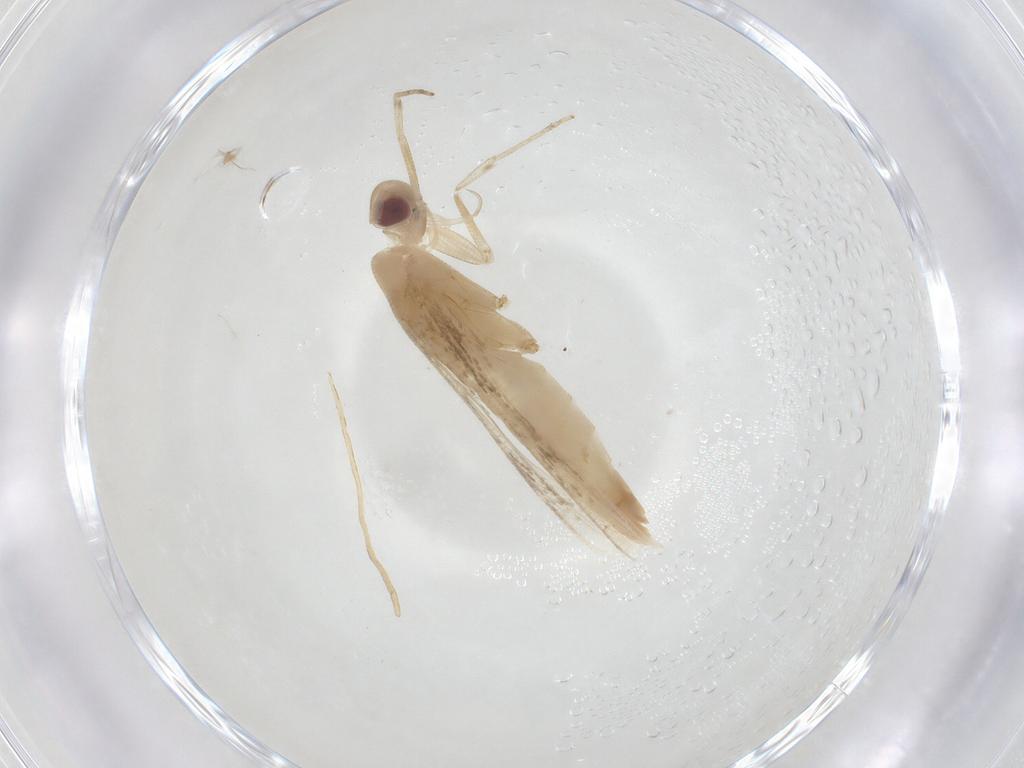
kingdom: Animalia
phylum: Arthropoda
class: Insecta
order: Lepidoptera
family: Cosmopterigidae
